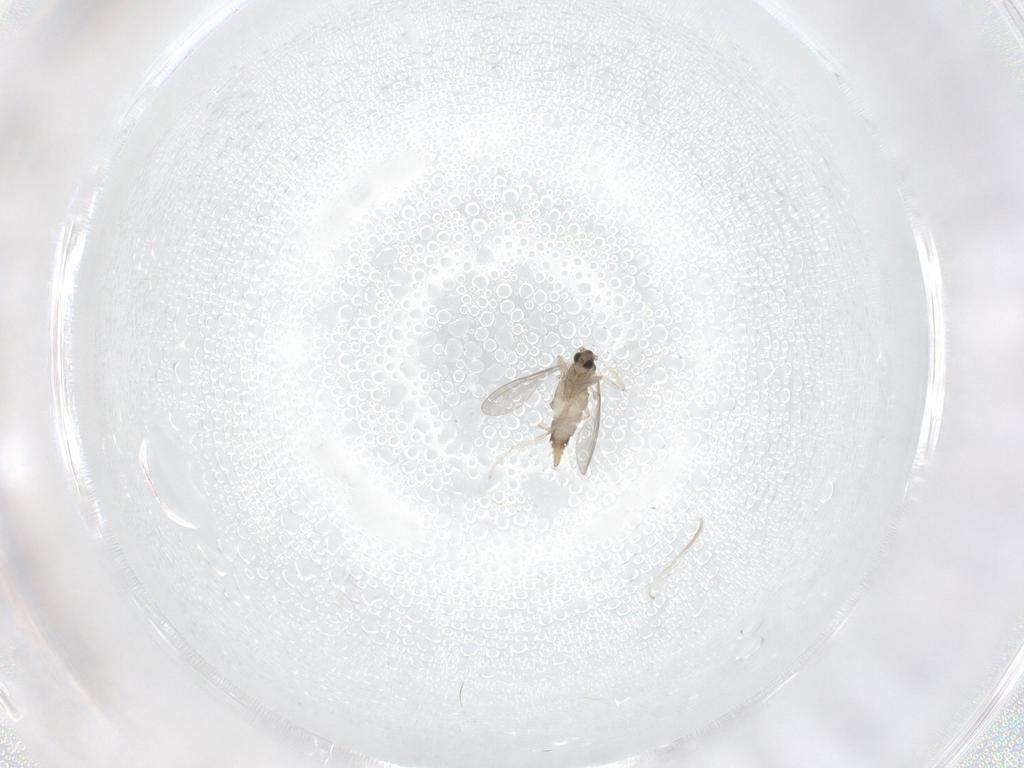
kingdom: Animalia
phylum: Arthropoda
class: Insecta
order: Diptera
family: Cecidomyiidae
